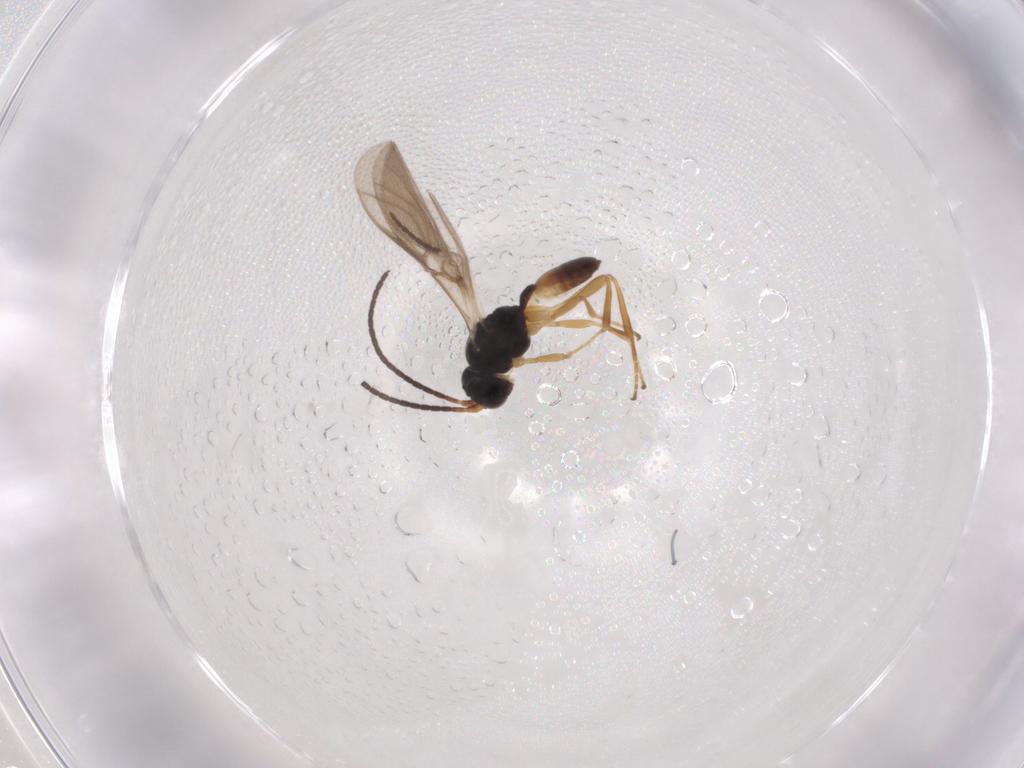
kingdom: Animalia
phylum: Arthropoda
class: Insecta
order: Hymenoptera
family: Braconidae
